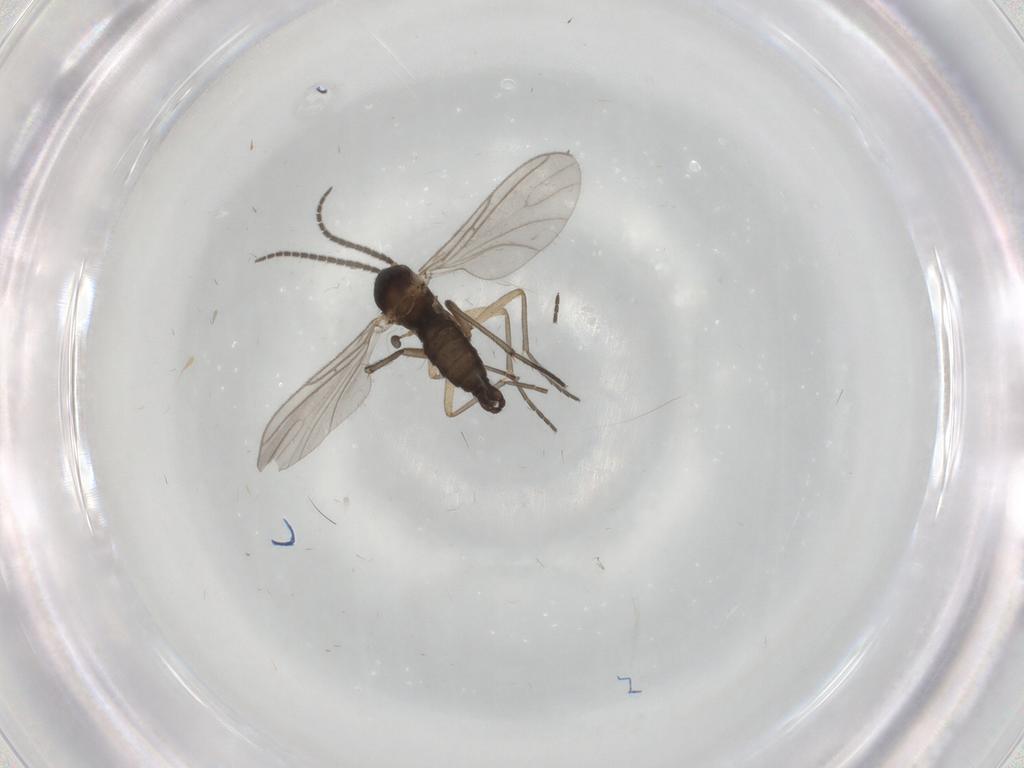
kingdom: Animalia
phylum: Arthropoda
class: Insecta
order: Diptera
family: Sciaridae
